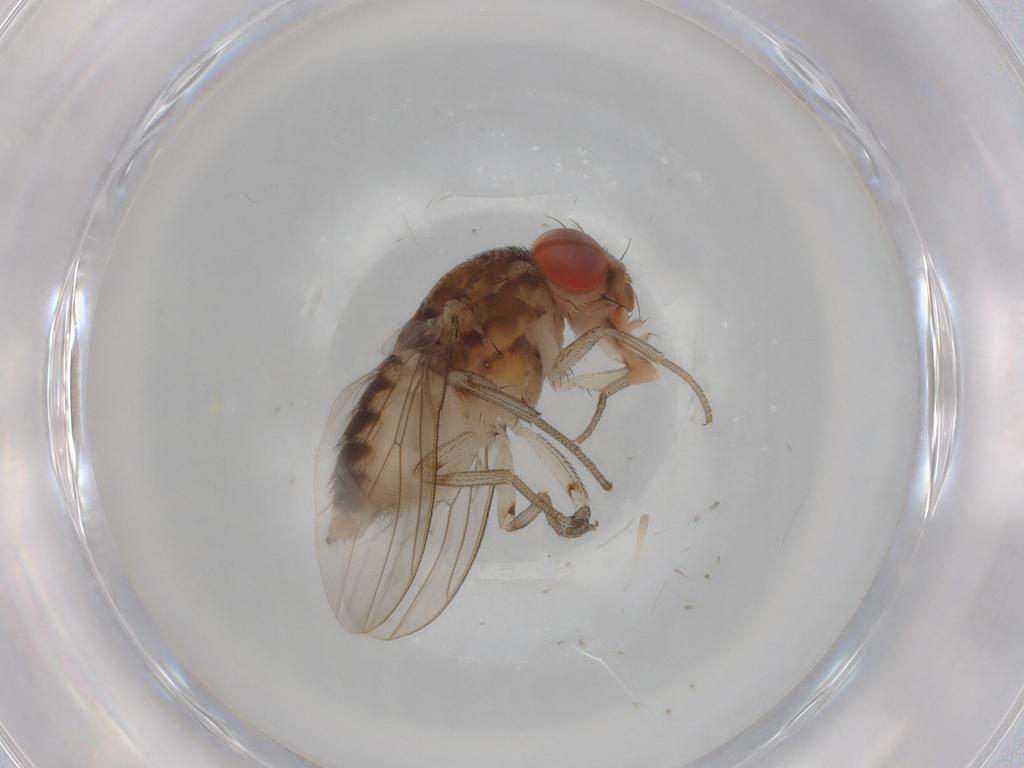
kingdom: Animalia
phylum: Arthropoda
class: Insecta
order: Diptera
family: Drosophilidae
